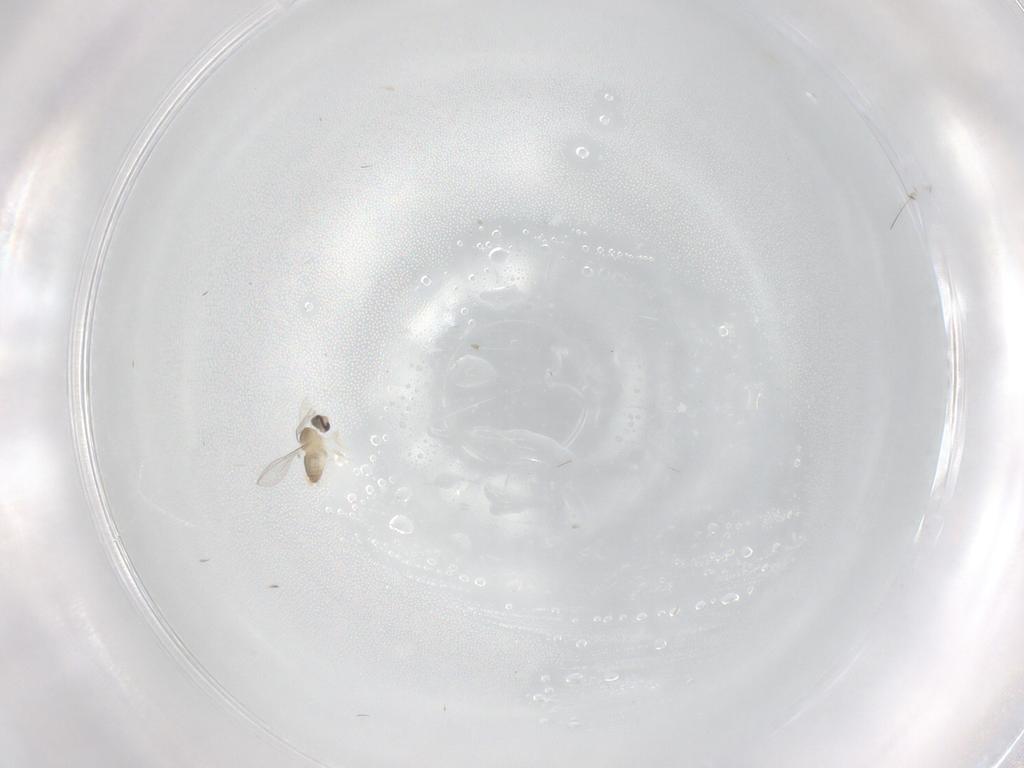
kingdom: Animalia
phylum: Arthropoda
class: Insecta
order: Diptera
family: Cecidomyiidae
